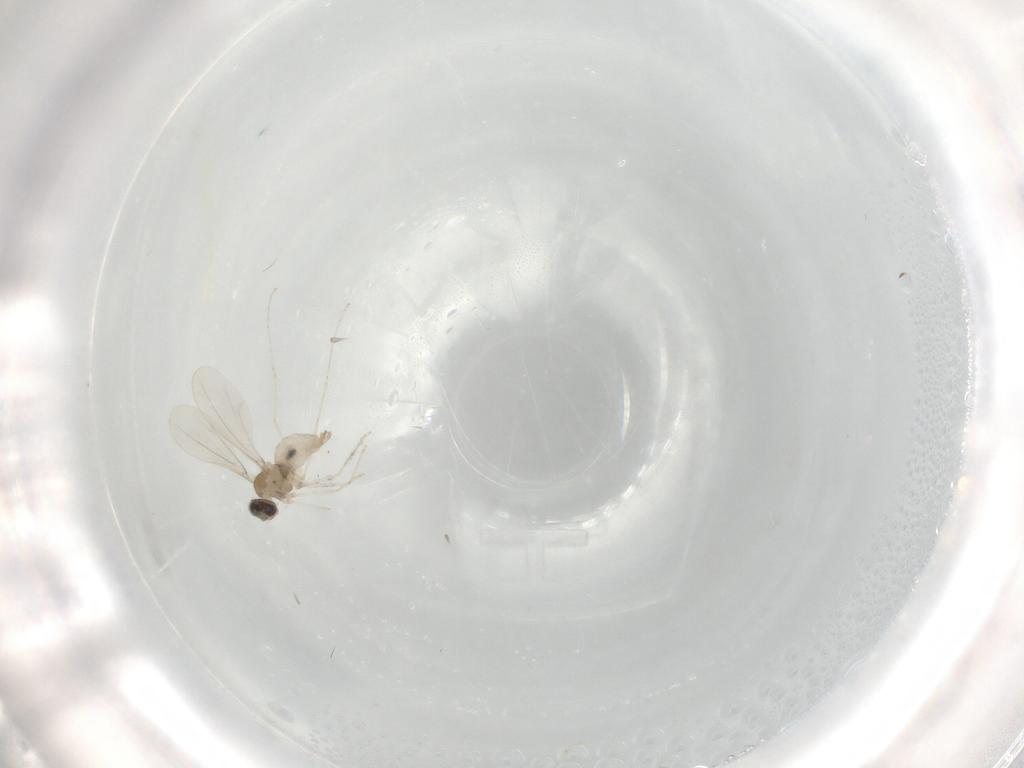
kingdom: Animalia
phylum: Arthropoda
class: Insecta
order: Diptera
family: Cecidomyiidae
